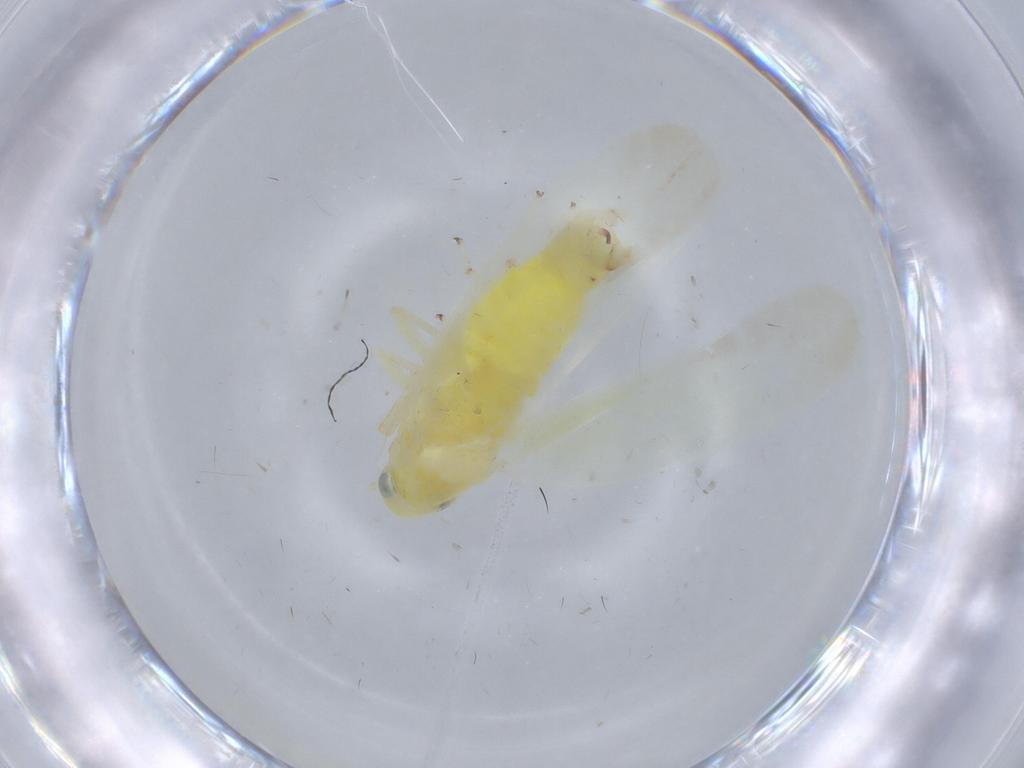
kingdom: Animalia
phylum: Arthropoda
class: Insecta
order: Hemiptera
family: Cicadellidae
